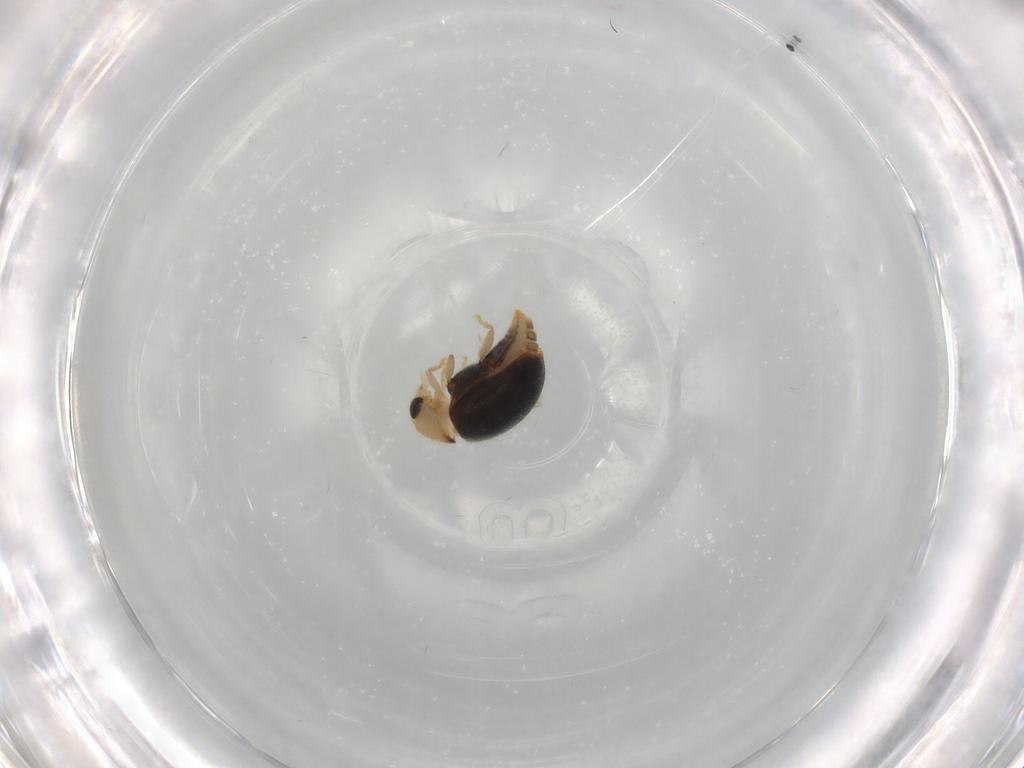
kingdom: Animalia
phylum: Arthropoda
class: Insecta
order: Coleoptera
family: Coccinellidae
